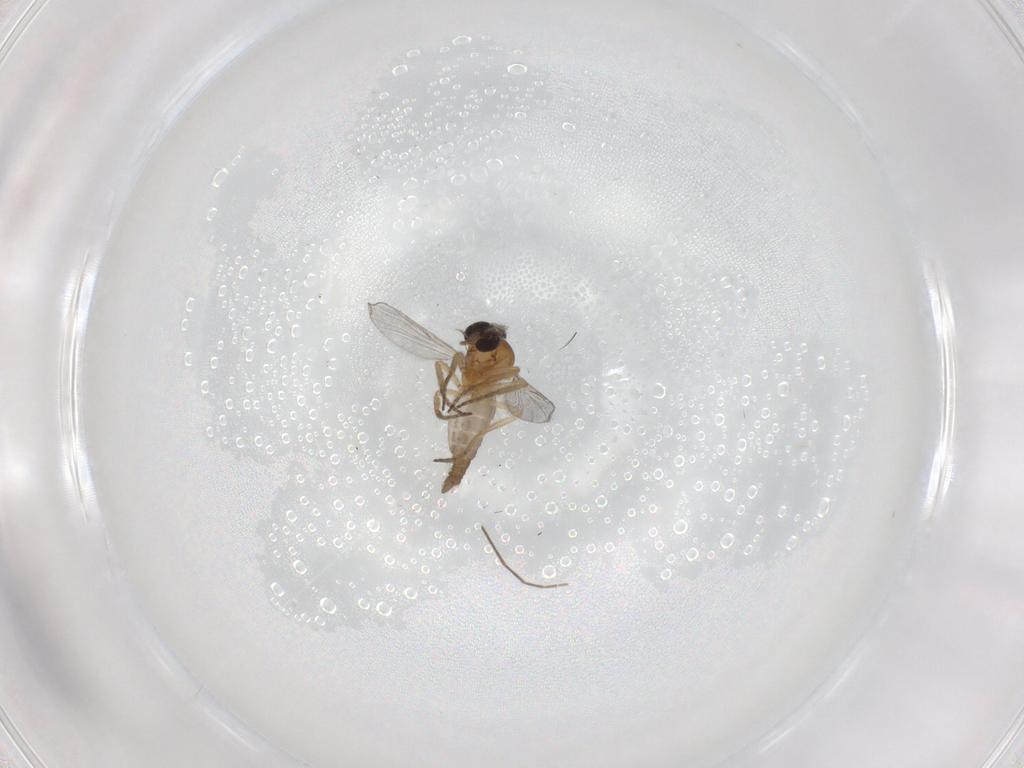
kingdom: Animalia
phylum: Arthropoda
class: Insecta
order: Diptera
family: Ceratopogonidae
